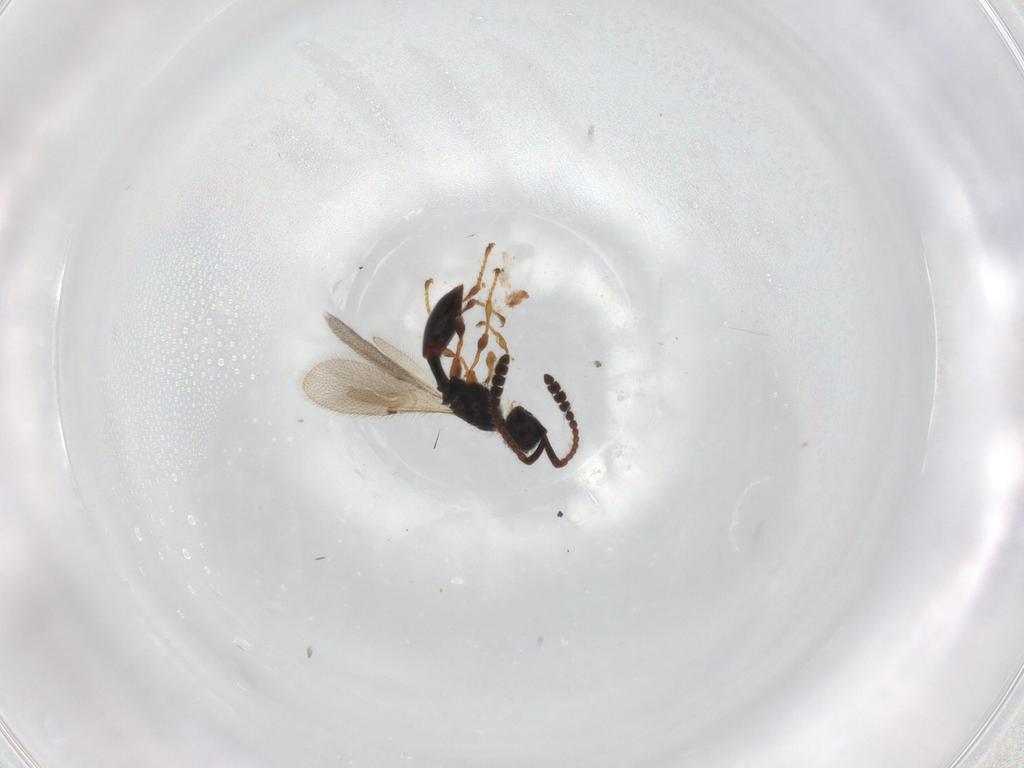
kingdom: Animalia
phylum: Arthropoda
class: Insecta
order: Hymenoptera
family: Diapriidae
